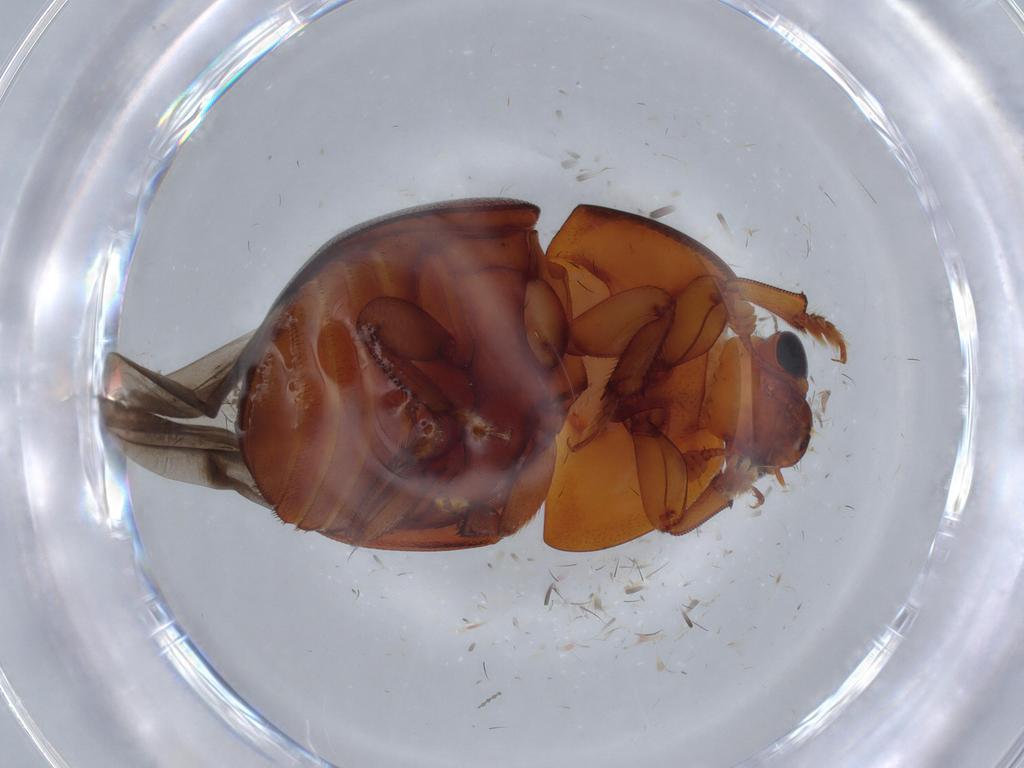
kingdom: Animalia
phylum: Arthropoda
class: Insecta
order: Coleoptera
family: Nitidulidae
